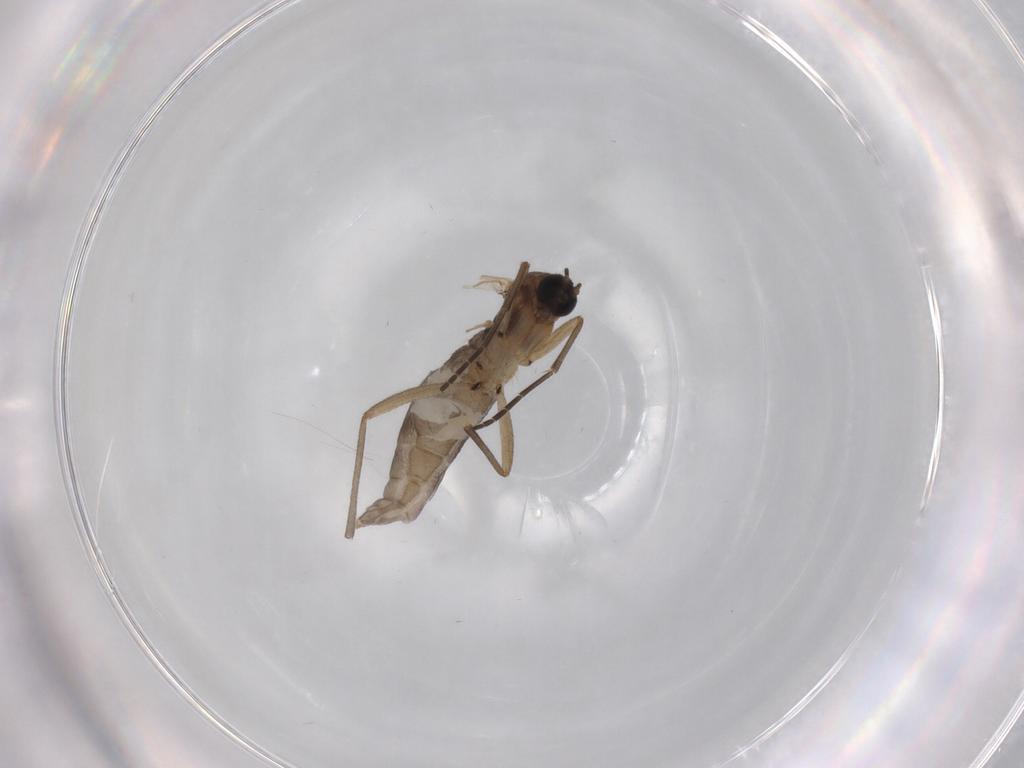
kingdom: Animalia
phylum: Arthropoda
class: Insecta
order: Diptera
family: Sciaridae
